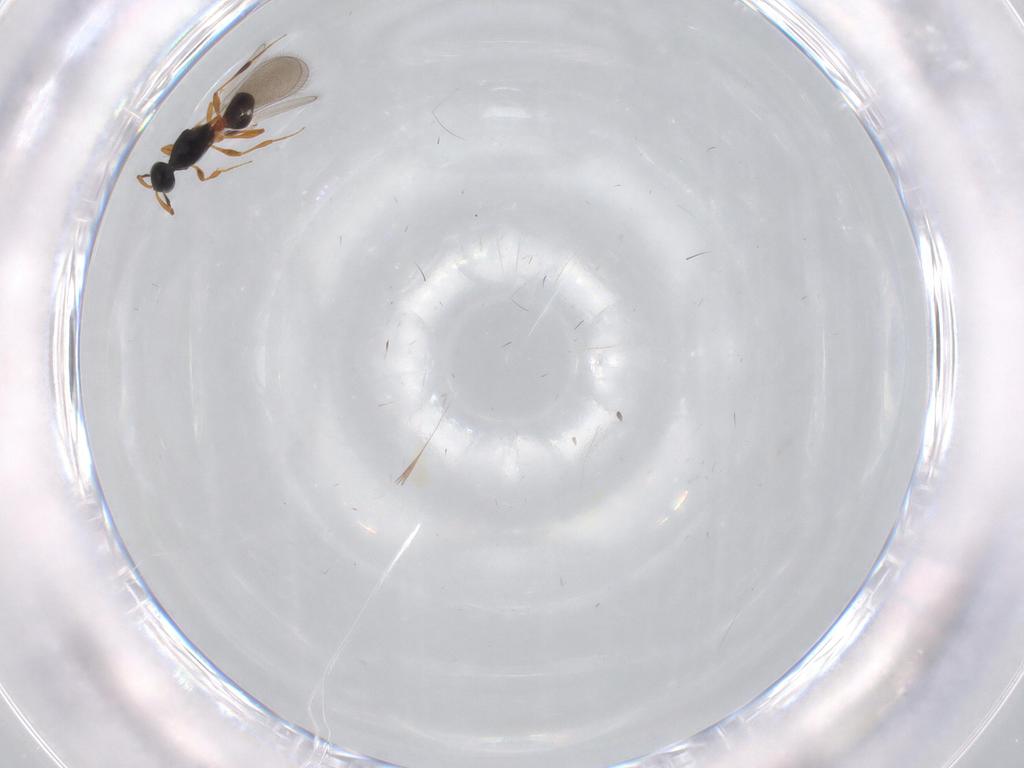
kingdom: Animalia
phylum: Arthropoda
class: Insecta
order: Hymenoptera
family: Platygastridae
